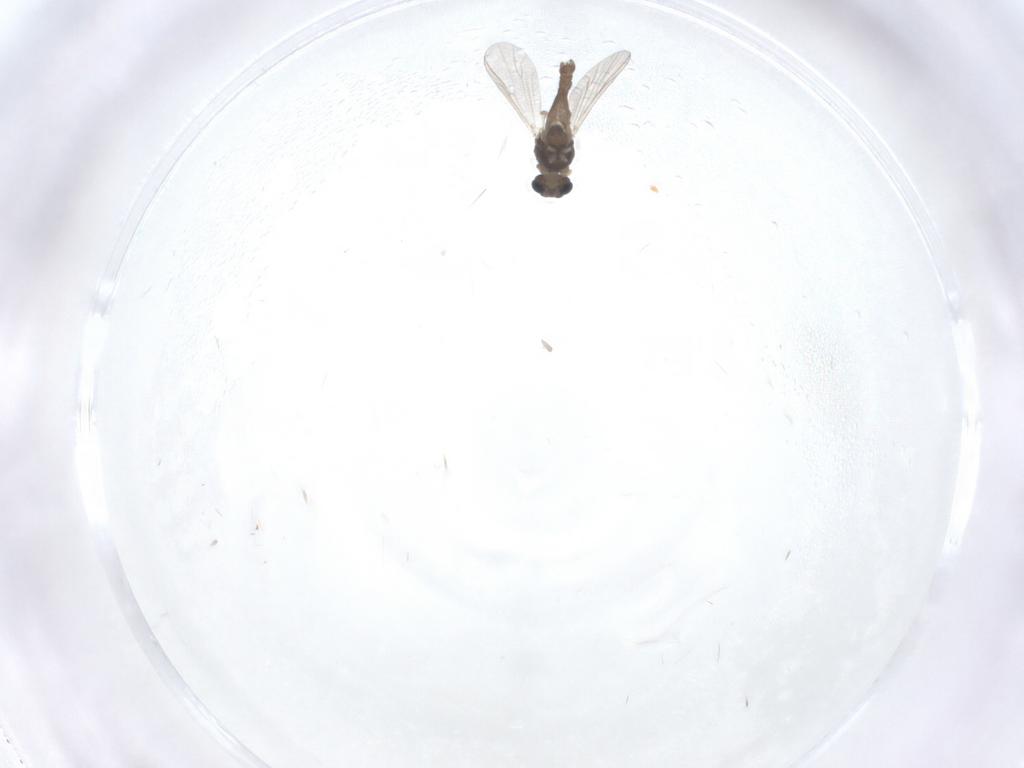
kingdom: Animalia
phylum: Arthropoda
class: Insecta
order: Diptera
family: Chironomidae
